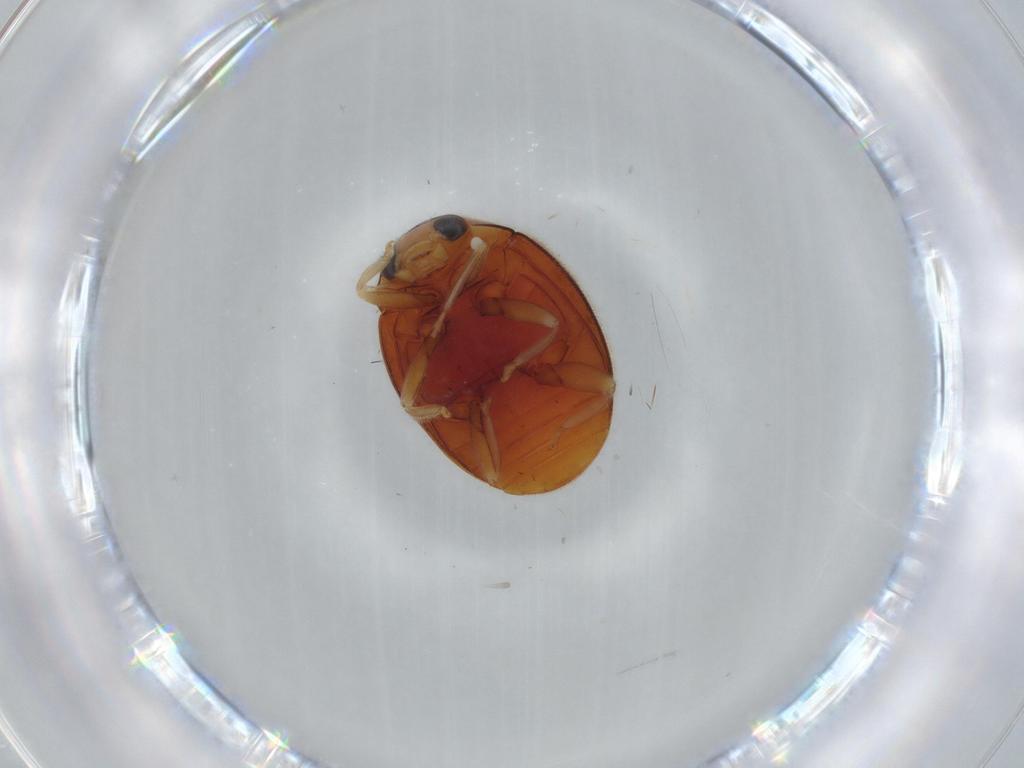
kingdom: Animalia
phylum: Arthropoda
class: Insecta
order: Coleoptera
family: Coccinellidae
